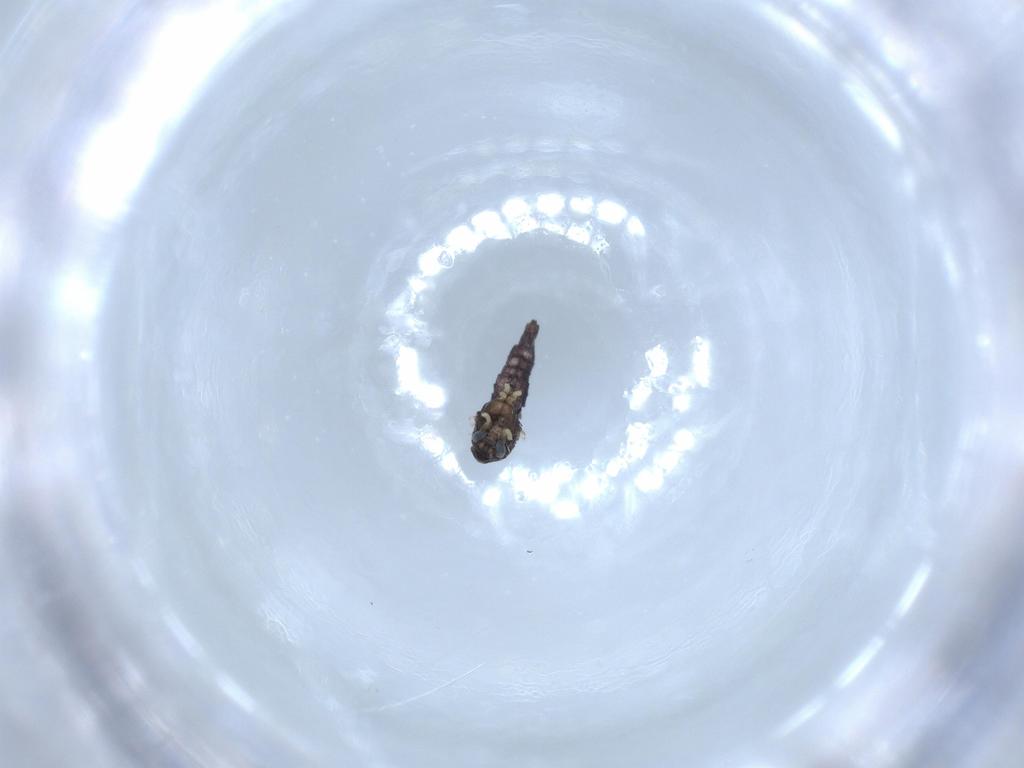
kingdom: Animalia
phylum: Arthropoda
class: Insecta
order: Diptera
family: Chironomidae
